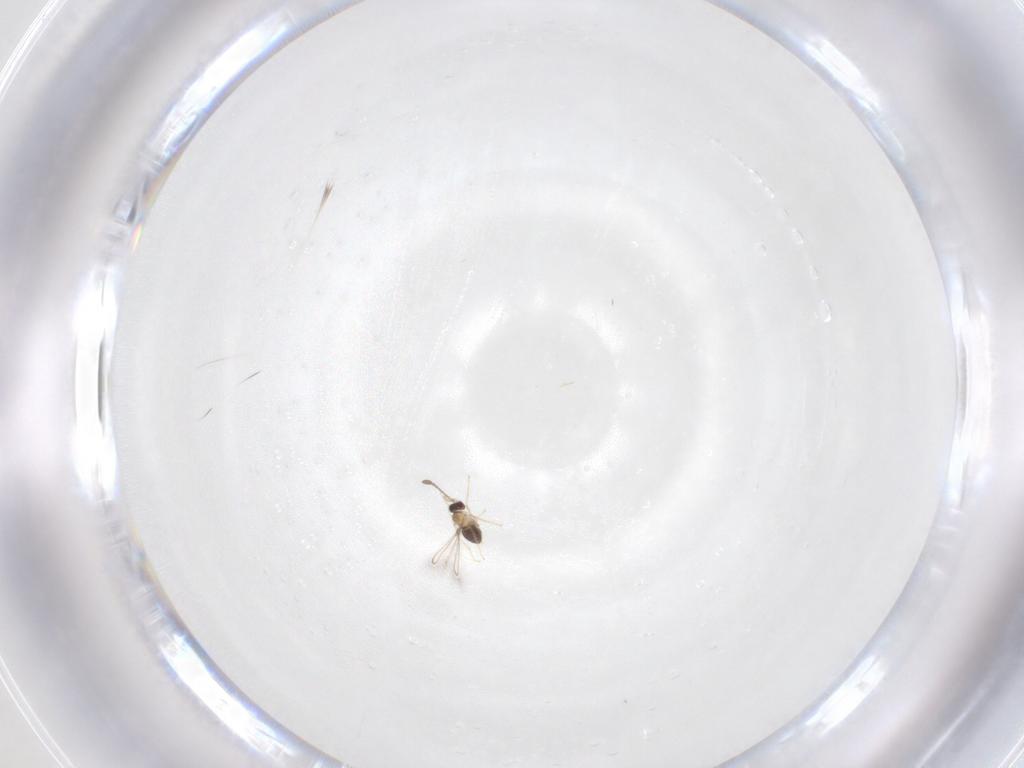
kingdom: Animalia
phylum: Arthropoda
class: Insecta
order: Hymenoptera
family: Mymaridae
